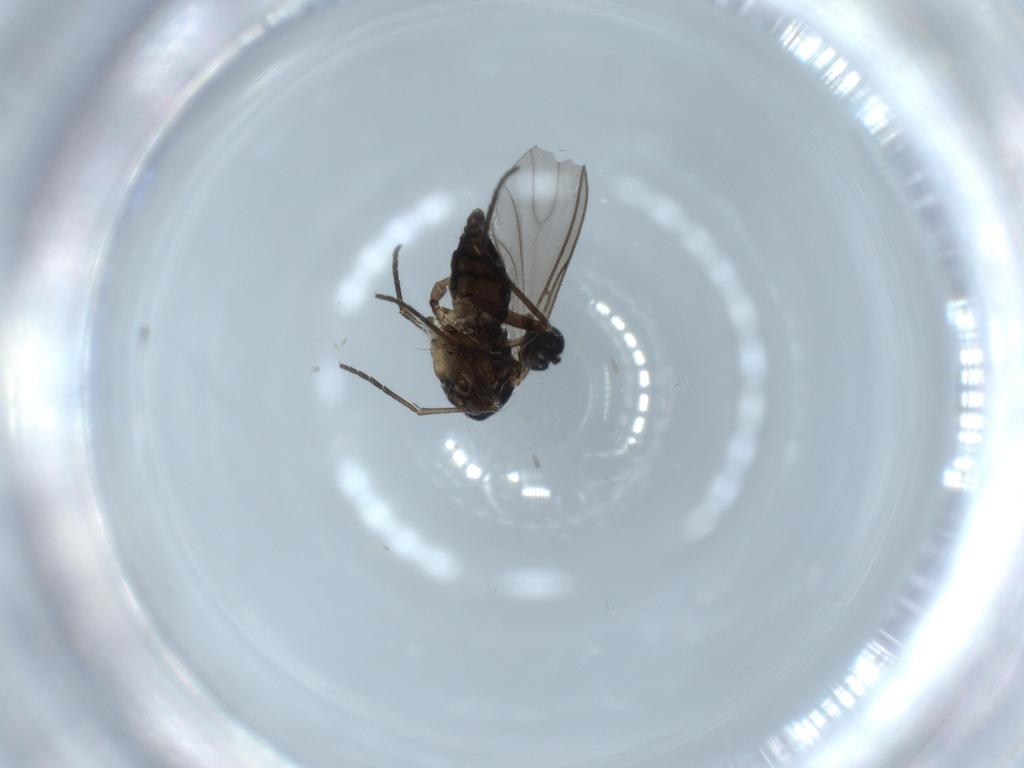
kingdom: Animalia
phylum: Arthropoda
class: Insecta
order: Diptera
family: Sciaridae
